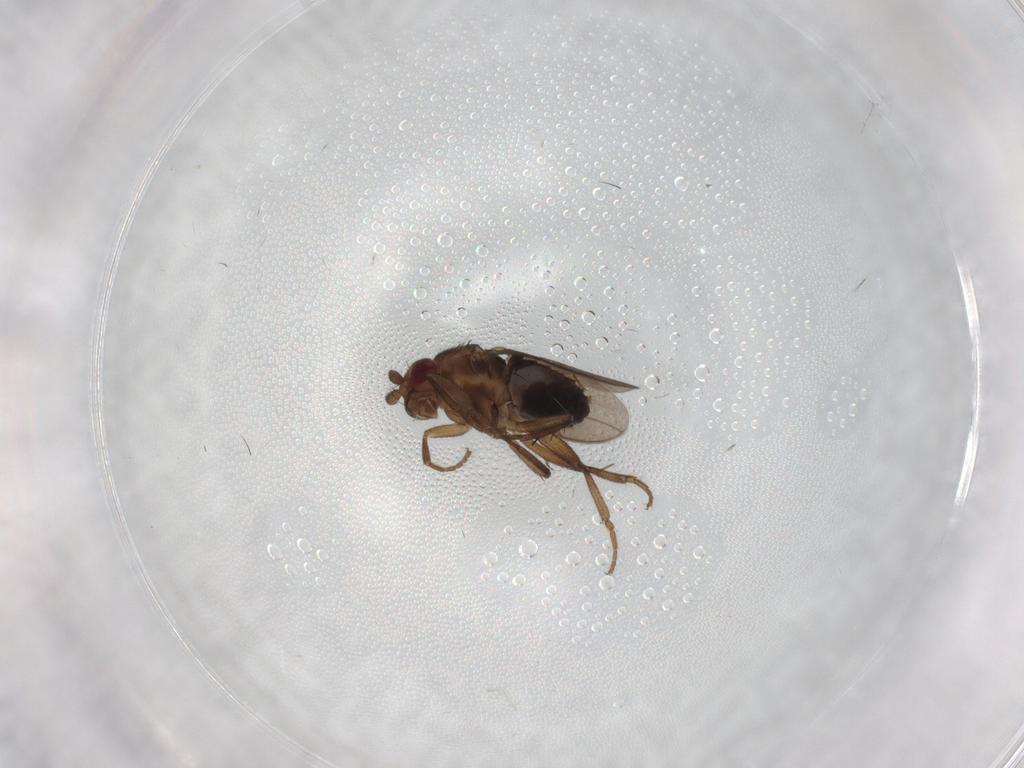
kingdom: Animalia
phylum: Arthropoda
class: Insecta
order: Diptera
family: Sphaeroceridae
